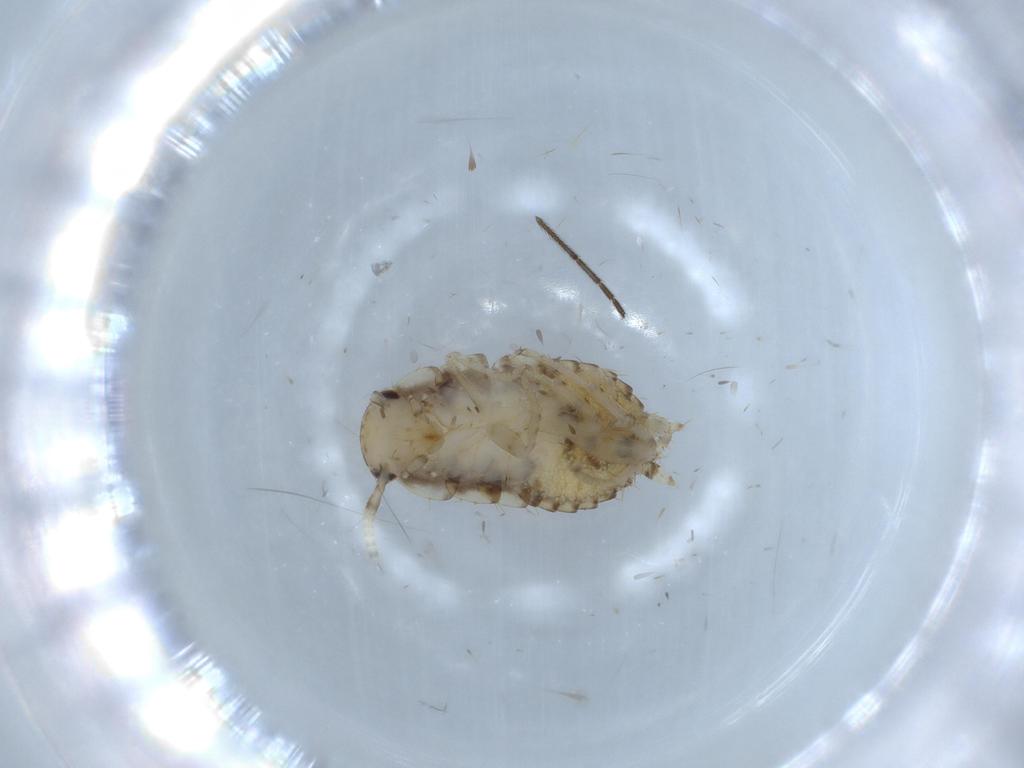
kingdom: Animalia
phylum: Arthropoda
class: Insecta
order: Blattodea
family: Ectobiidae
